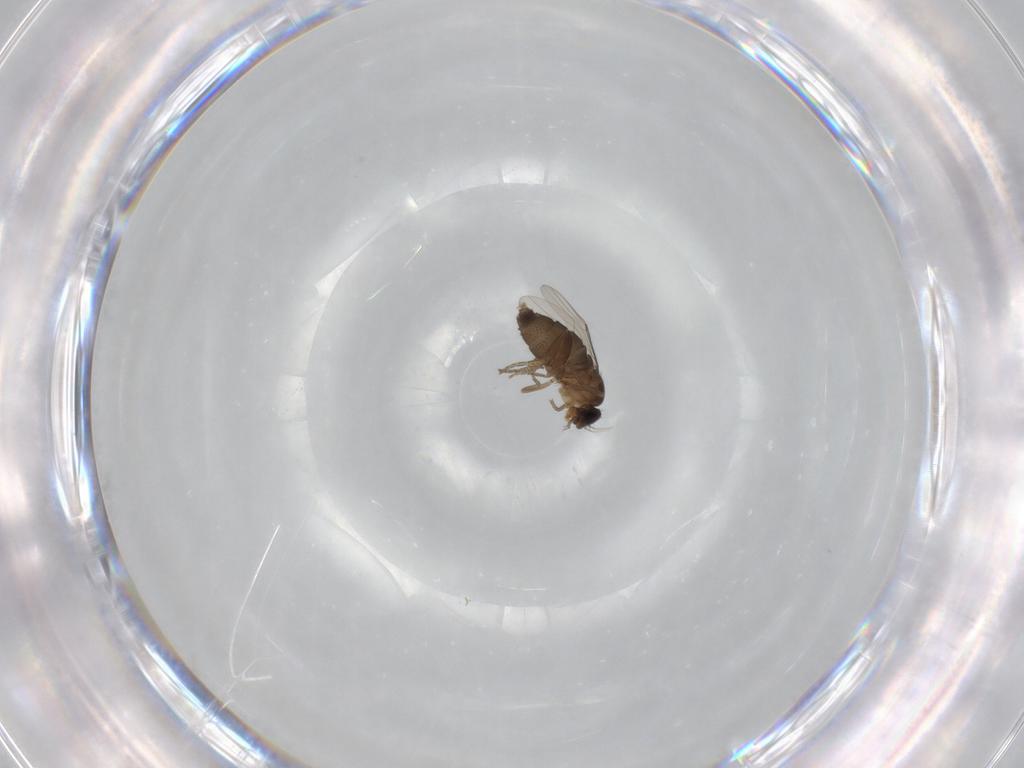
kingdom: Animalia
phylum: Arthropoda
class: Insecta
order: Diptera
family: Phoridae
